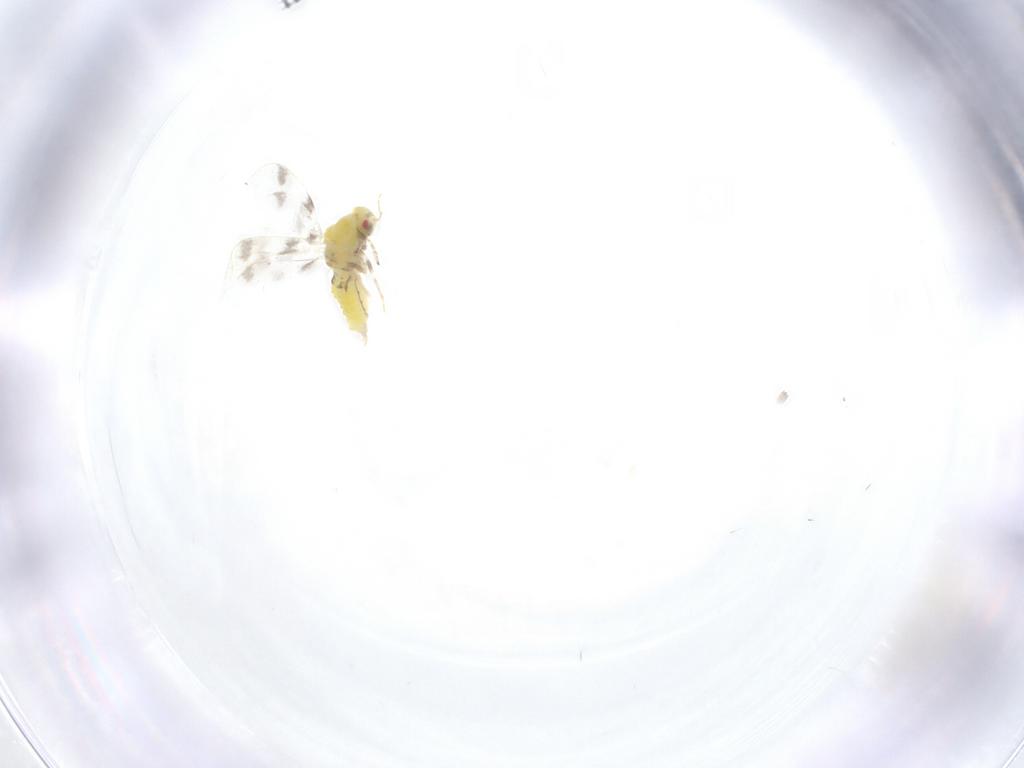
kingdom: Animalia
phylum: Arthropoda
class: Insecta
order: Hemiptera
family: Aleyrodidae
